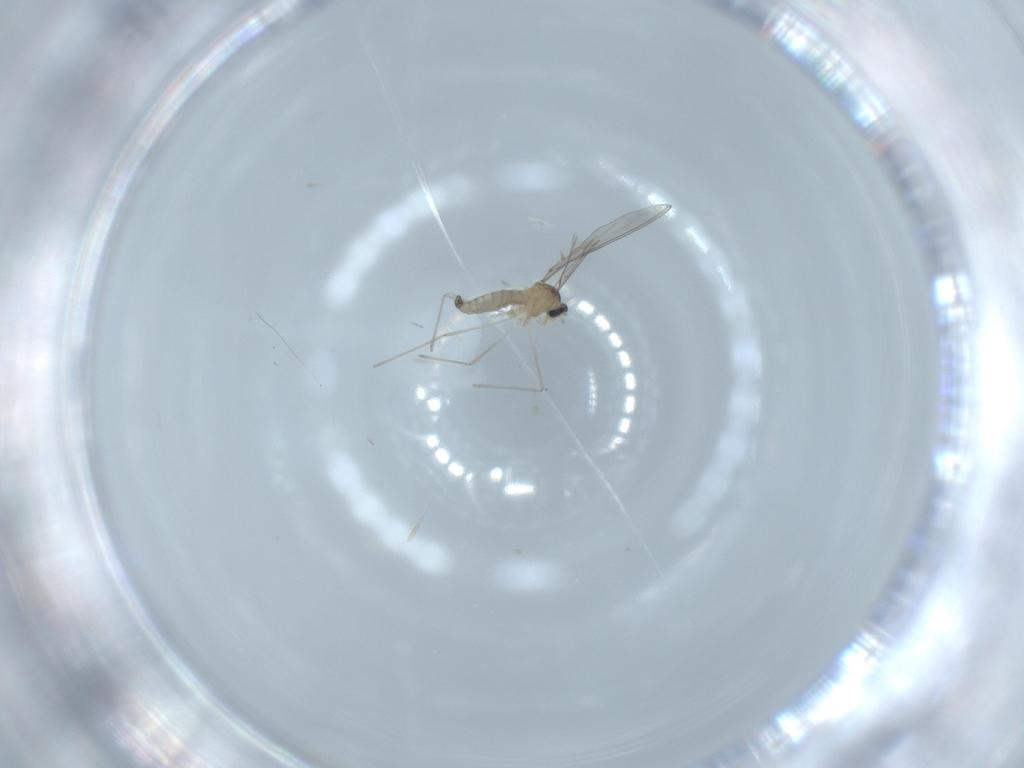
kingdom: Animalia
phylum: Arthropoda
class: Insecta
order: Diptera
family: Cecidomyiidae
